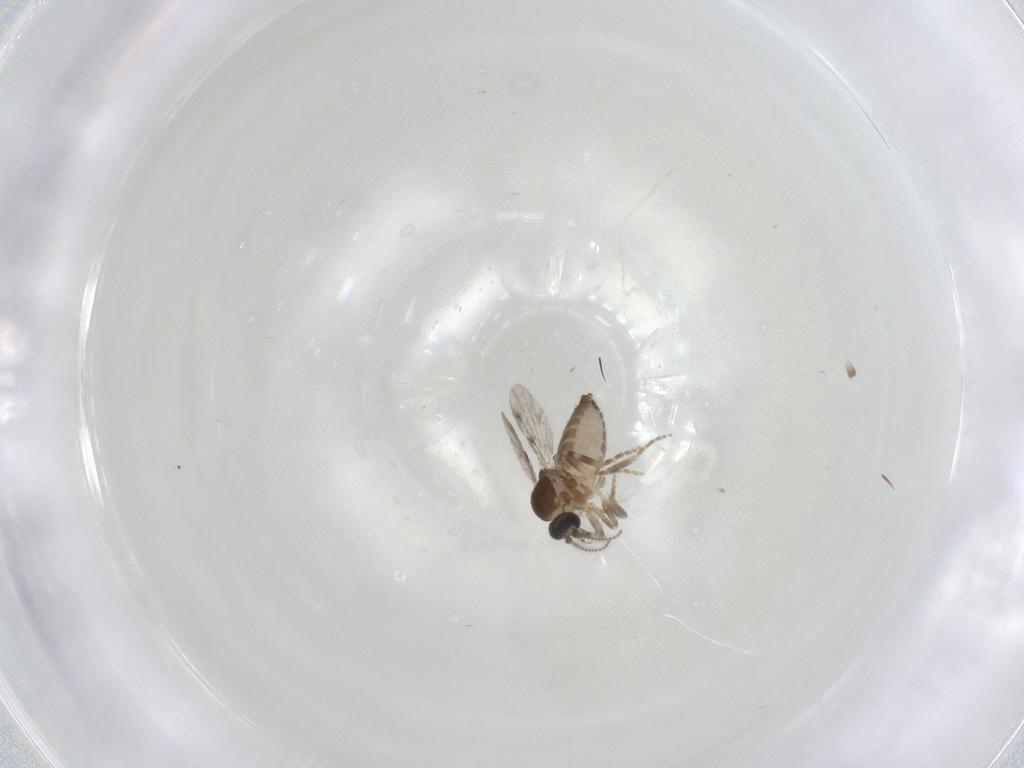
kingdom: Animalia
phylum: Arthropoda
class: Insecta
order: Diptera
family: Ceratopogonidae
